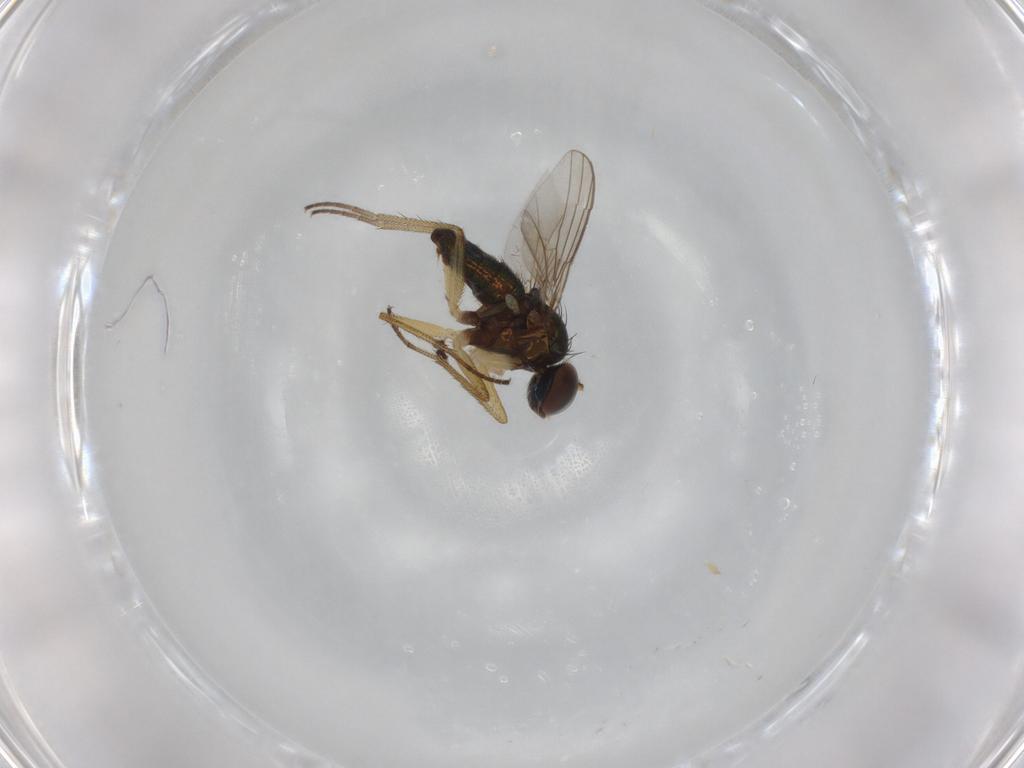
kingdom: Animalia
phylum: Arthropoda
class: Insecta
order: Diptera
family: Dolichopodidae
